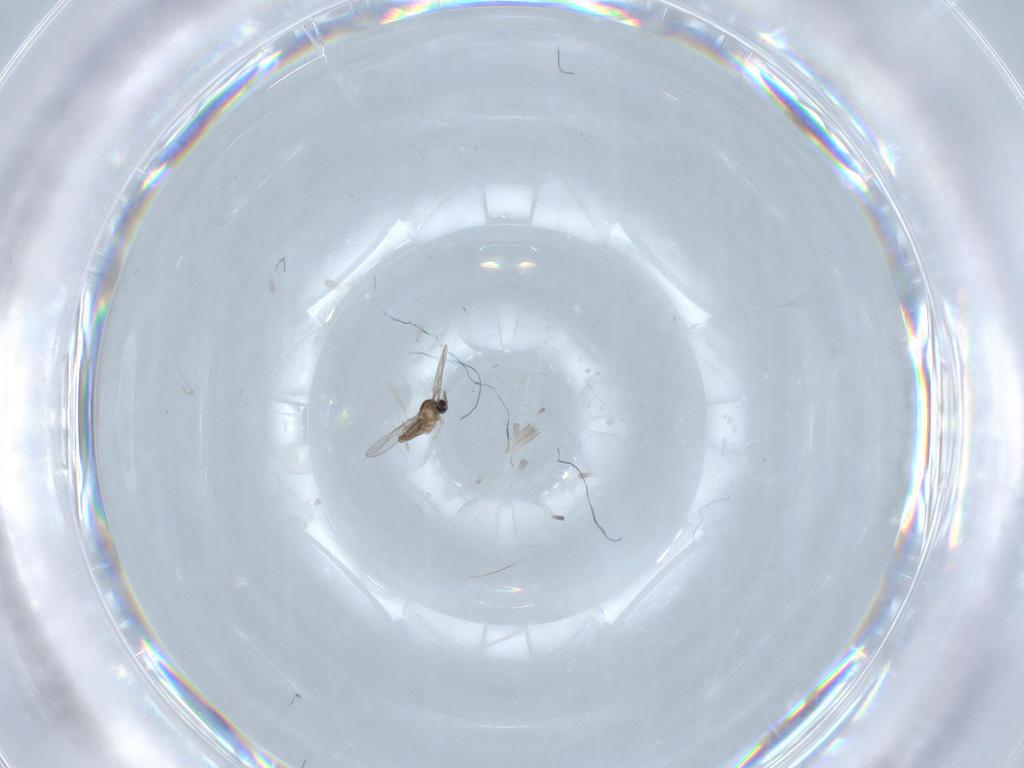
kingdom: Animalia
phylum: Arthropoda
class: Insecta
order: Diptera
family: Cecidomyiidae
